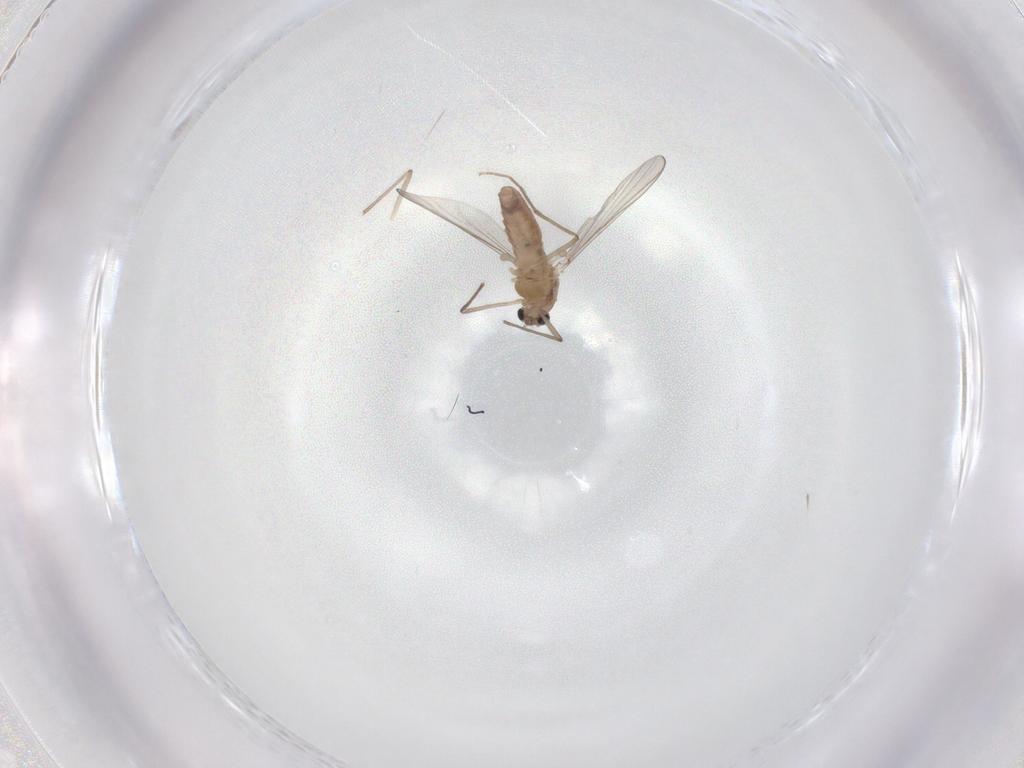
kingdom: Animalia
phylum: Arthropoda
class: Insecta
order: Diptera
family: Chironomidae
